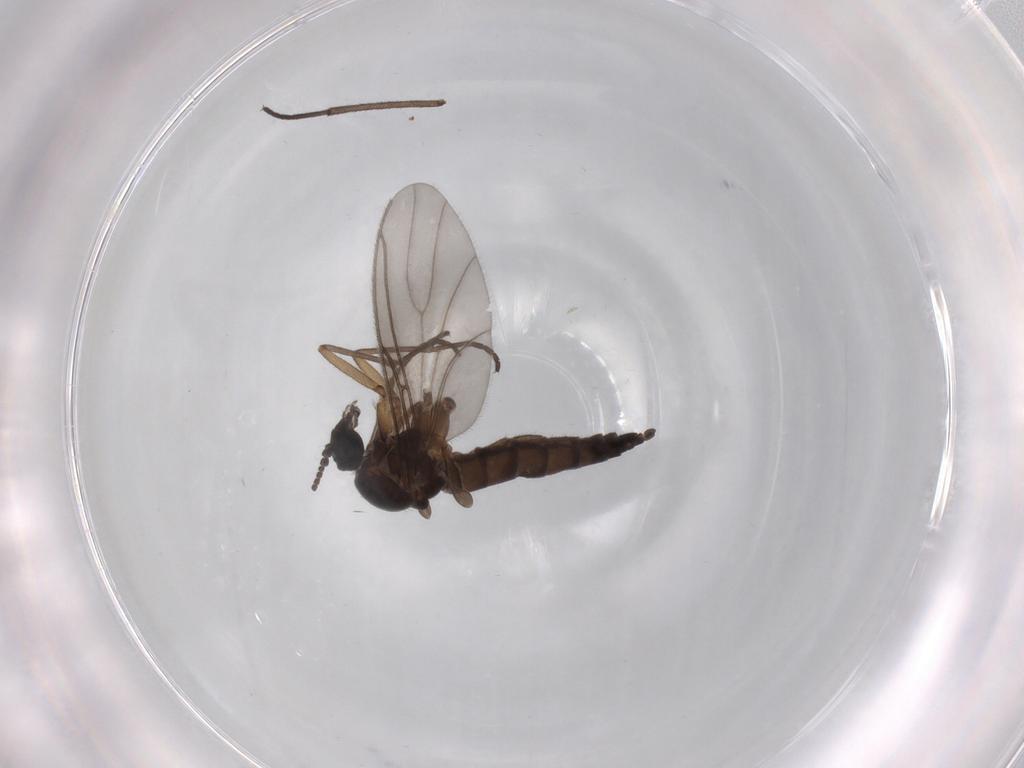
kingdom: Animalia
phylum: Arthropoda
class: Insecta
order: Diptera
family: Sciaridae
